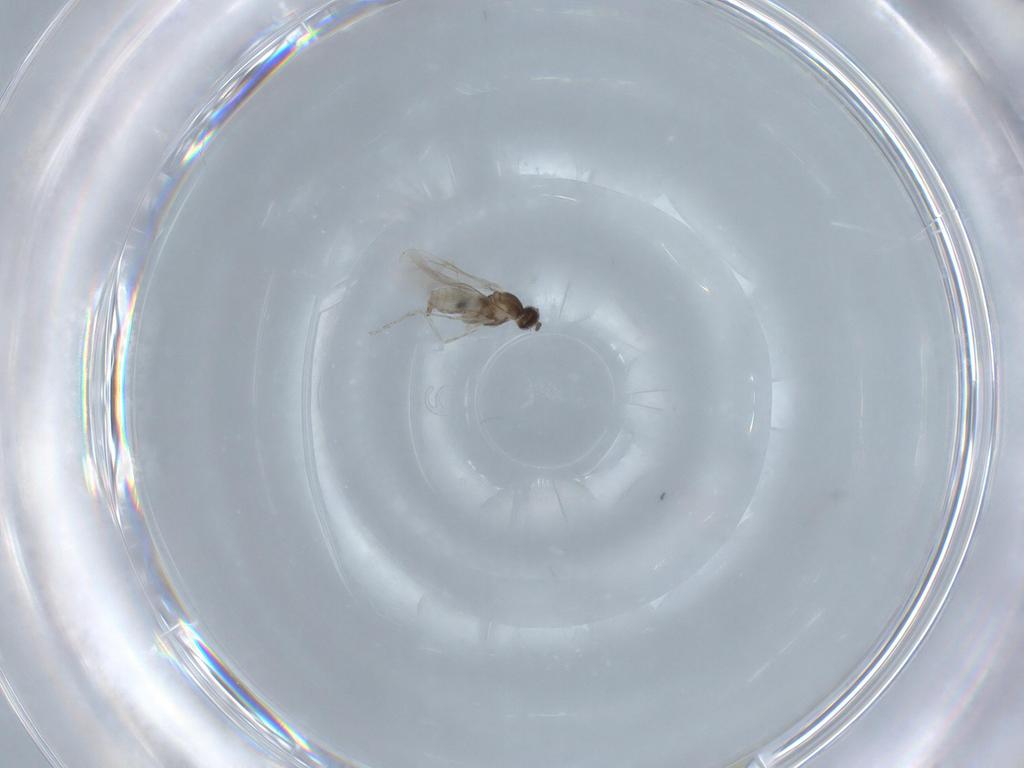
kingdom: Animalia
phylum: Arthropoda
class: Insecta
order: Diptera
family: Cecidomyiidae
